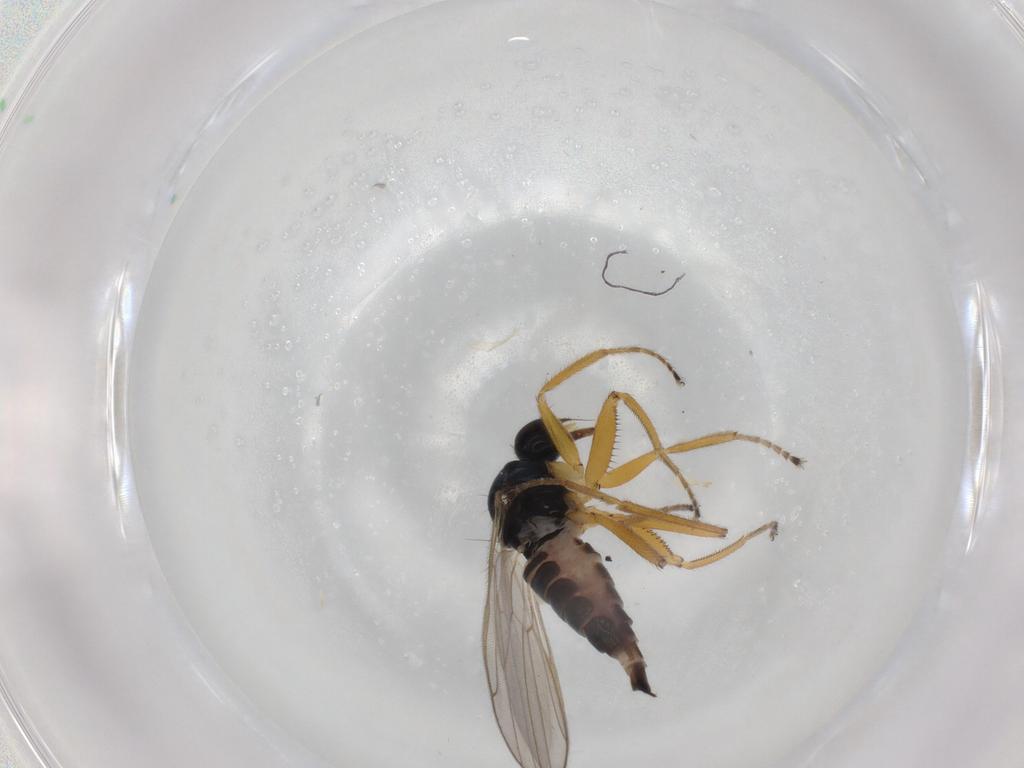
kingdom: Animalia
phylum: Arthropoda
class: Insecta
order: Diptera
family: Hybotidae
